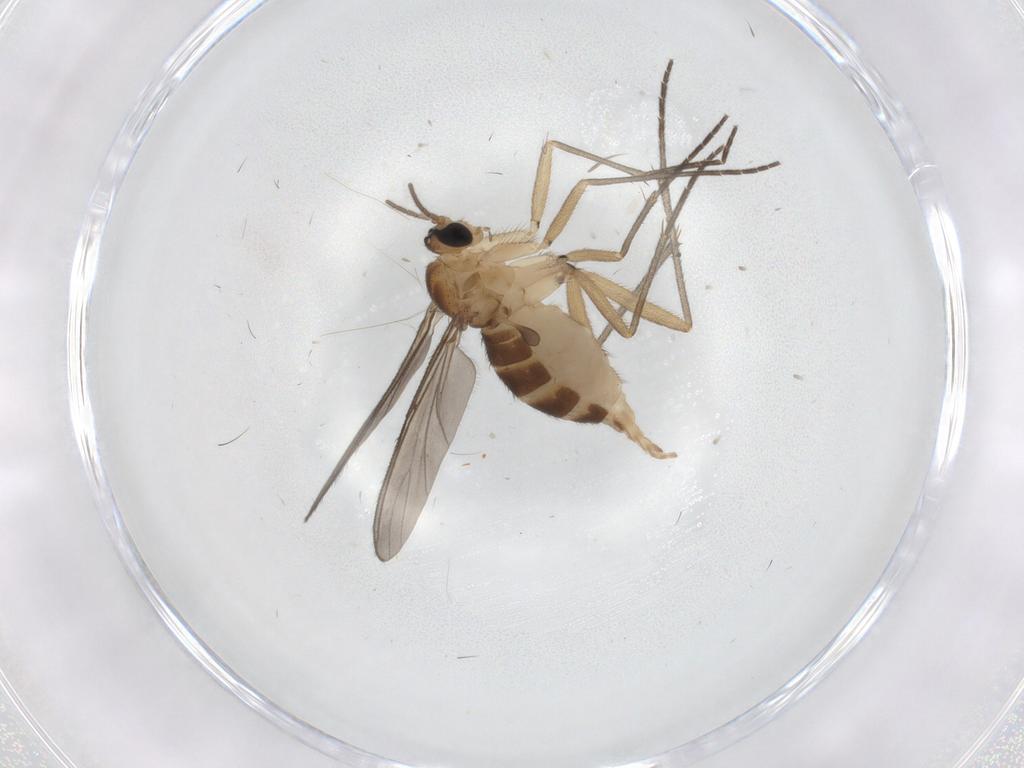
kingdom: Animalia
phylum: Arthropoda
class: Insecta
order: Diptera
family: Sciaridae
